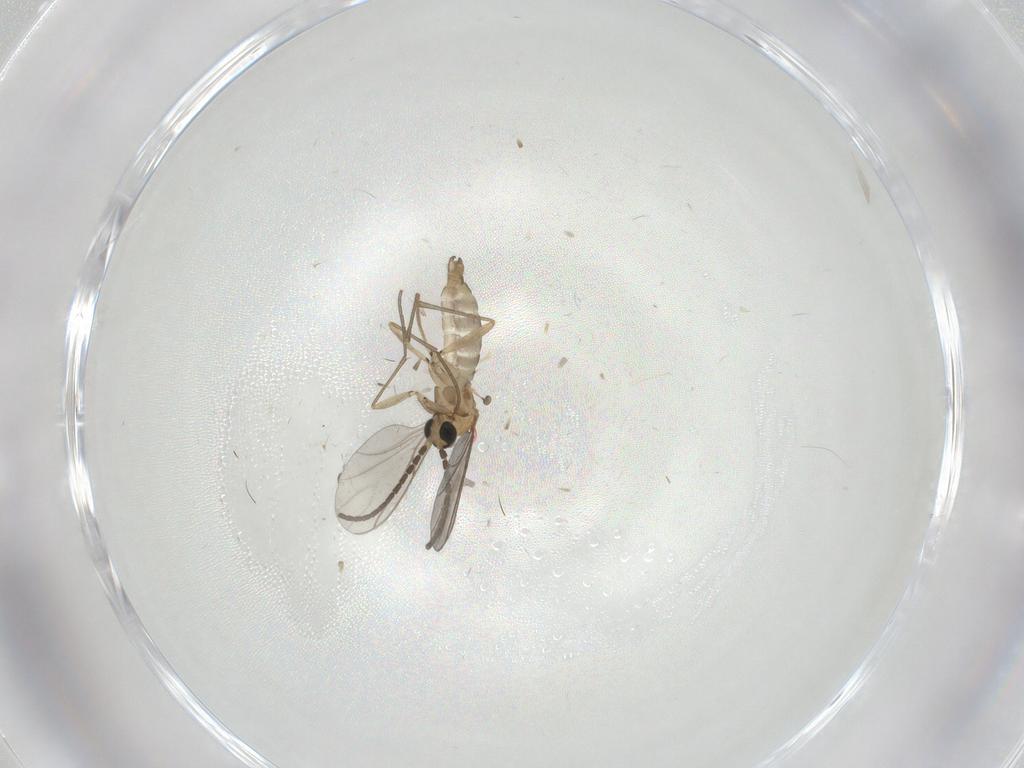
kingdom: Animalia
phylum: Arthropoda
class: Insecta
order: Diptera
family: Sciaridae
